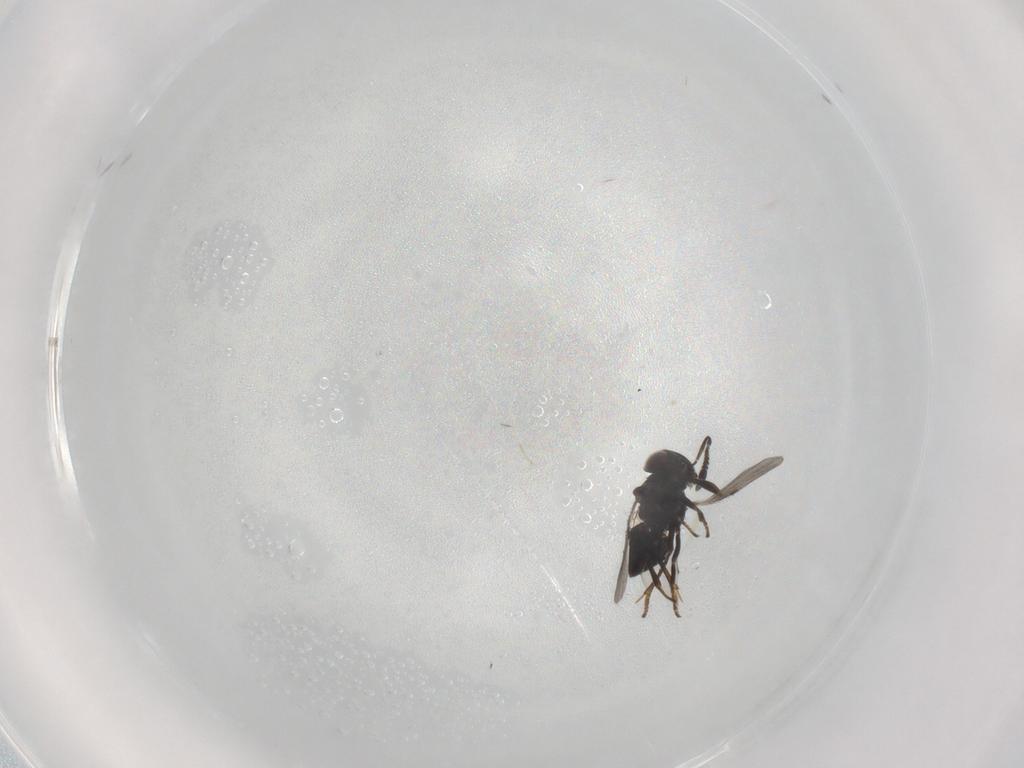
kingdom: Animalia
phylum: Arthropoda
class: Insecta
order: Hymenoptera
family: Encyrtidae
